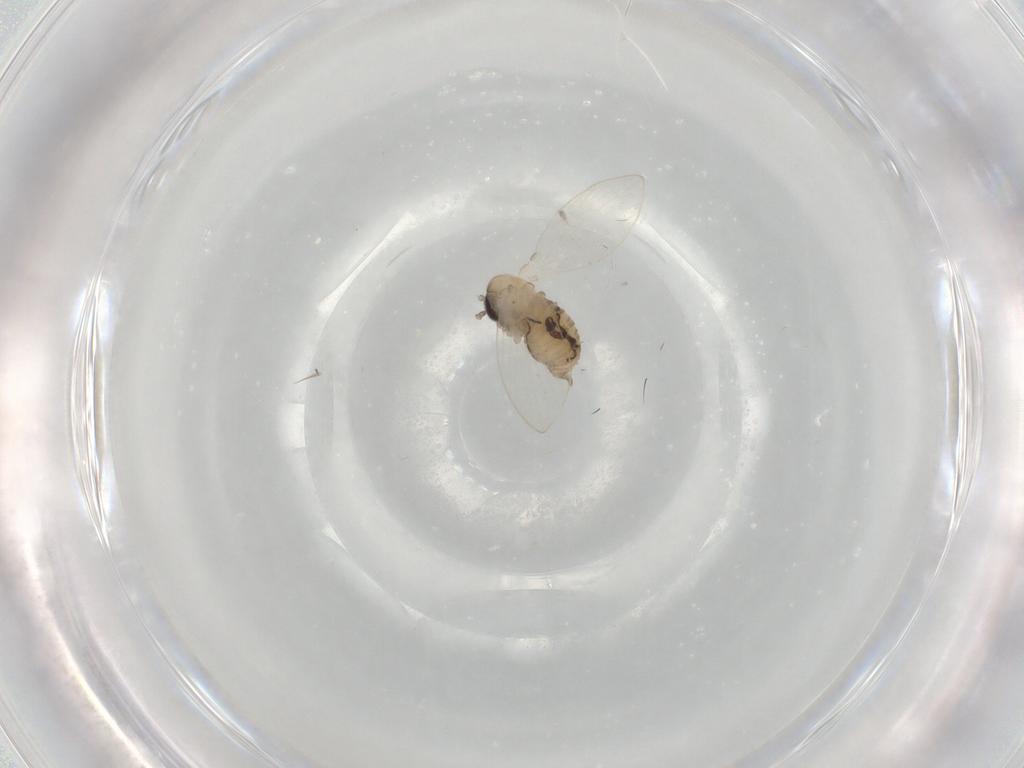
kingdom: Animalia
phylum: Arthropoda
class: Insecta
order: Diptera
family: Psychodidae
